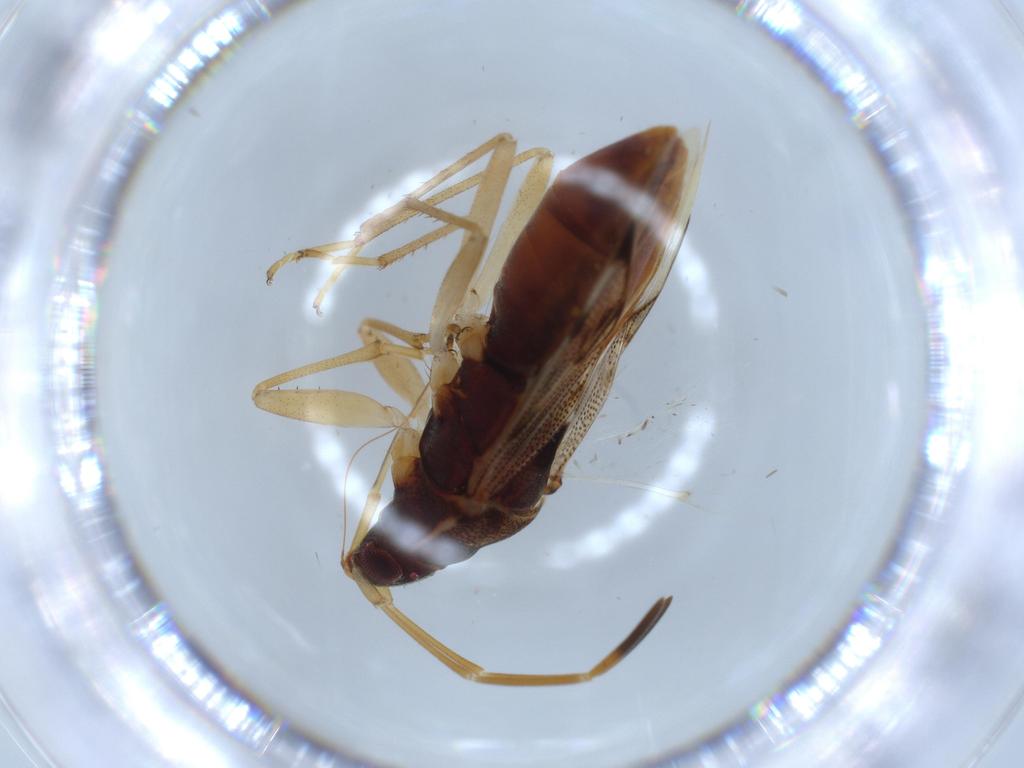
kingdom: Animalia
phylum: Arthropoda
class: Insecta
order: Hemiptera
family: Rhyparochromidae
